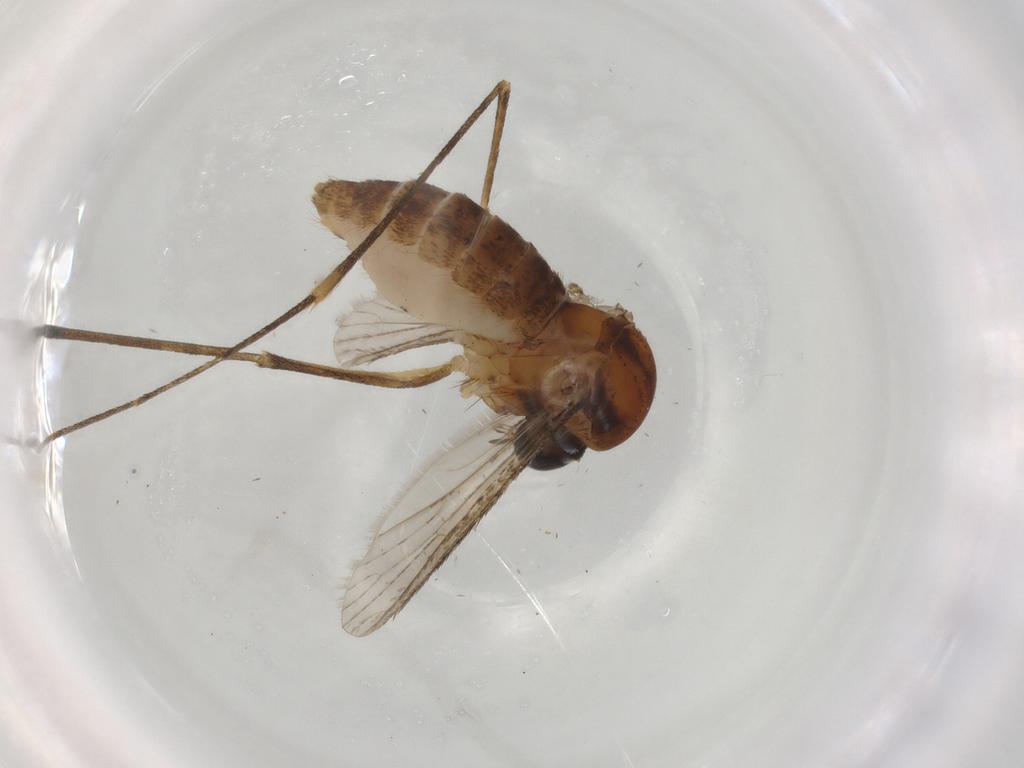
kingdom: Animalia
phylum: Arthropoda
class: Insecta
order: Diptera
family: Culicidae
